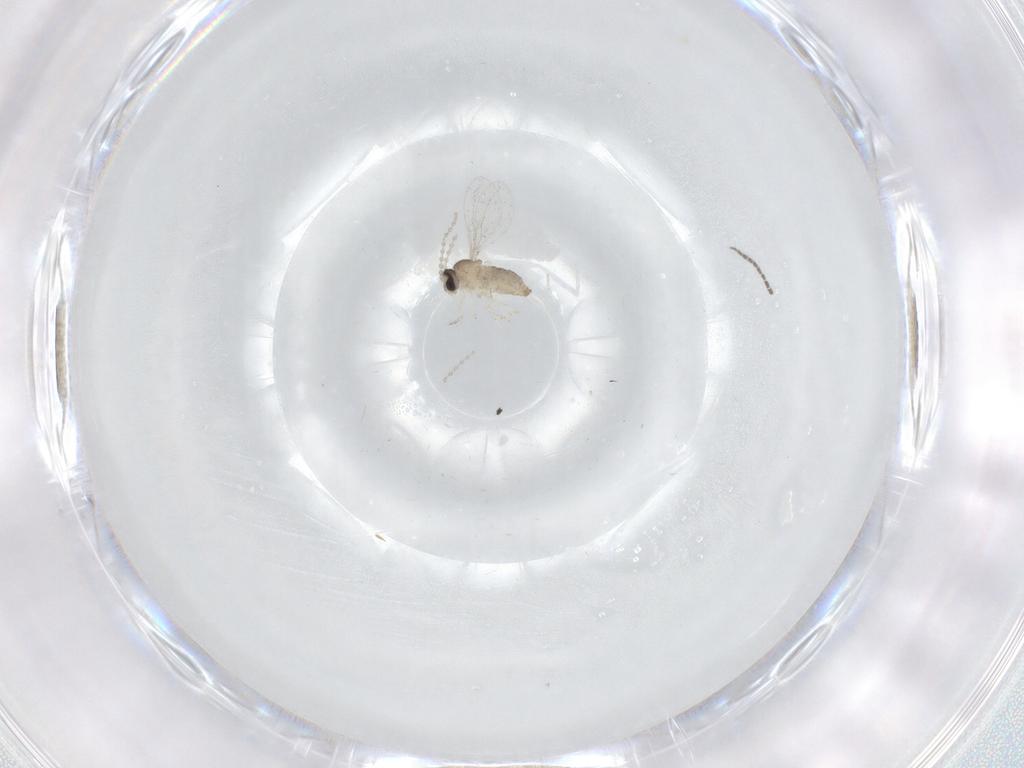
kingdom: Animalia
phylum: Arthropoda
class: Insecta
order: Diptera
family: Cecidomyiidae
